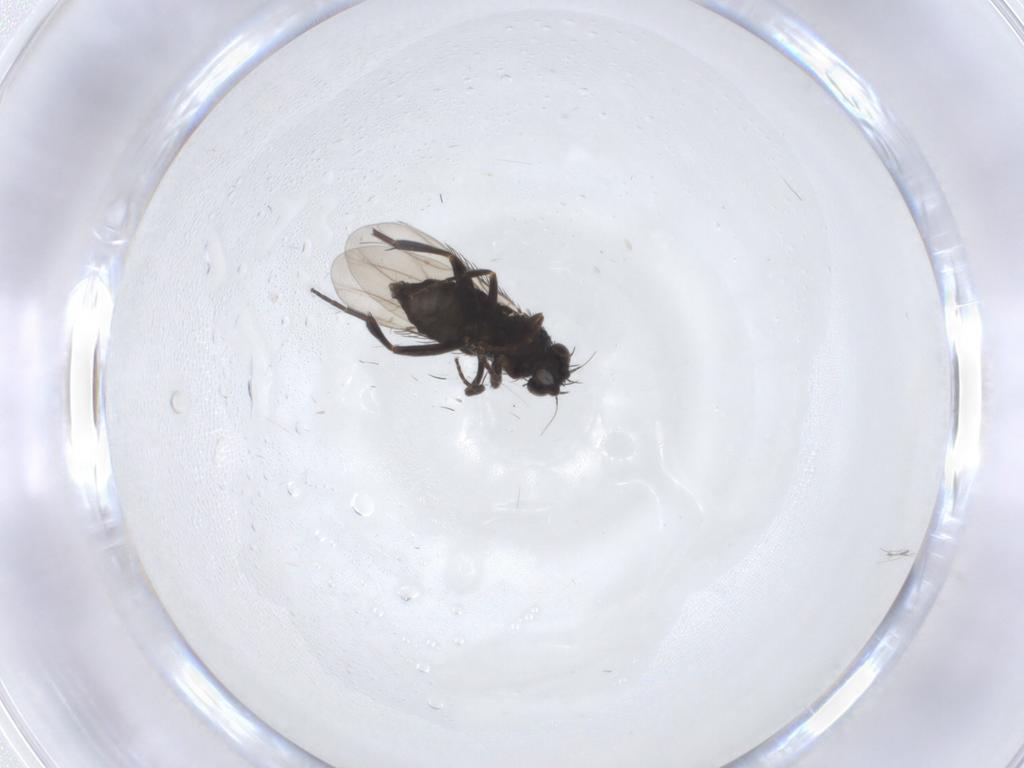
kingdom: Animalia
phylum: Arthropoda
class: Insecta
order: Diptera
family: Phoridae
